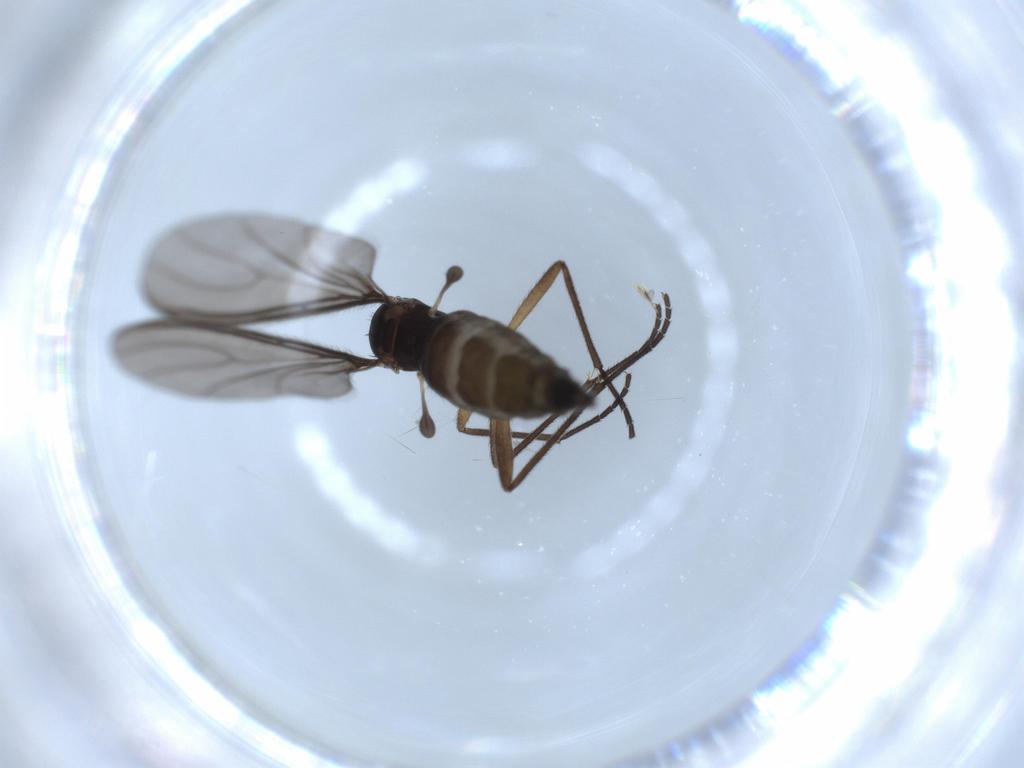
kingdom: Animalia
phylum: Arthropoda
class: Insecta
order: Diptera
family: Sciaridae
